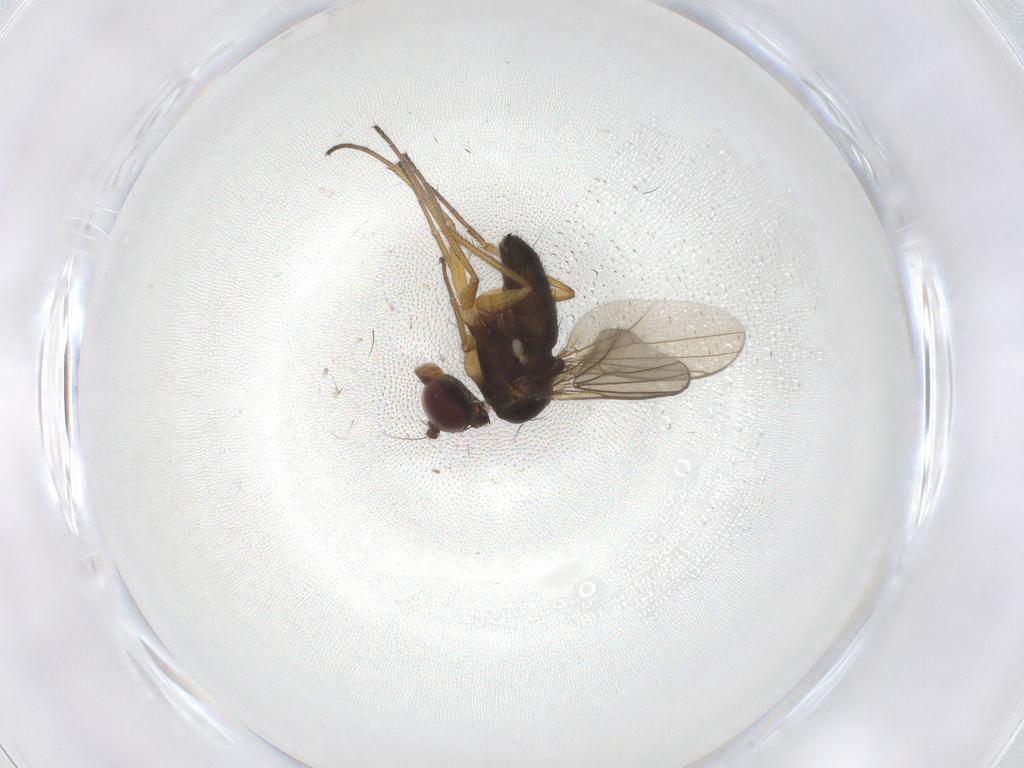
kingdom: Animalia
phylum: Arthropoda
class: Insecta
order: Diptera
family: Dolichopodidae
